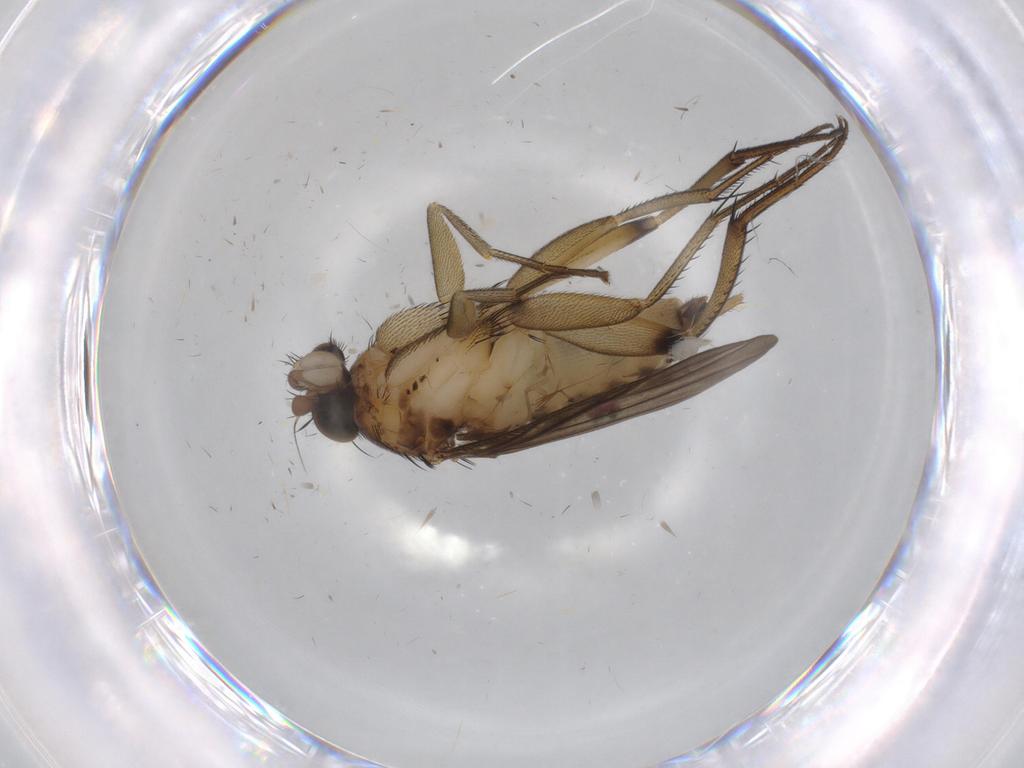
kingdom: Animalia
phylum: Arthropoda
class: Insecta
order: Diptera
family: Phoridae
